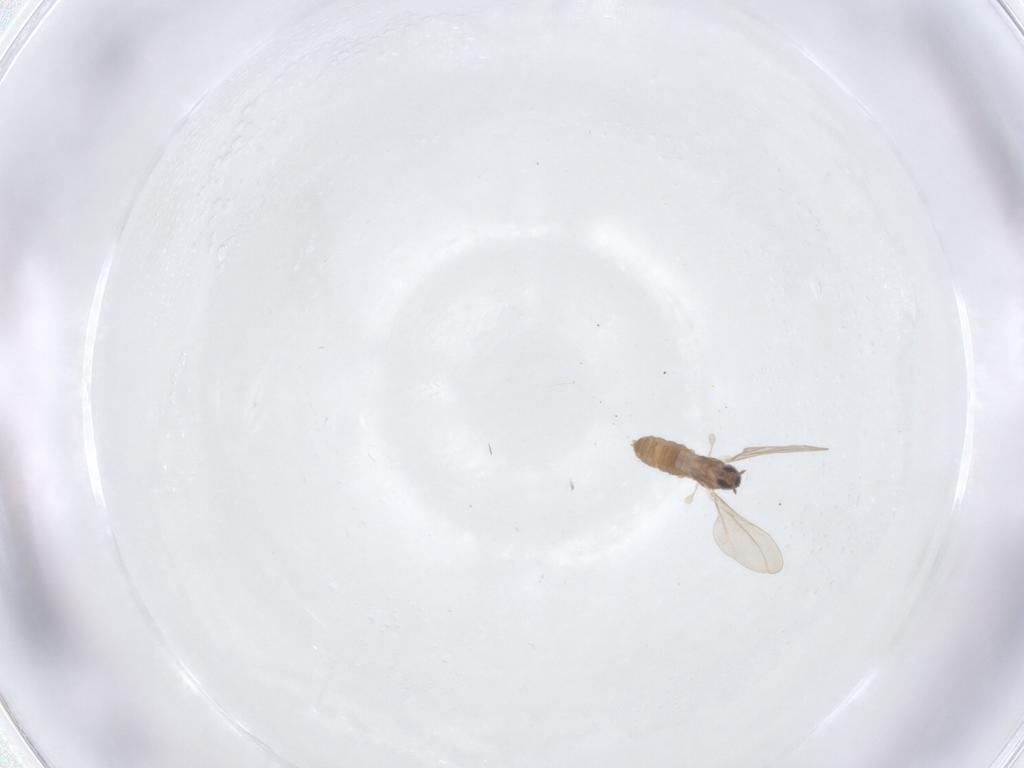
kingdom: Animalia
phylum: Arthropoda
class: Insecta
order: Diptera
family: Cecidomyiidae
